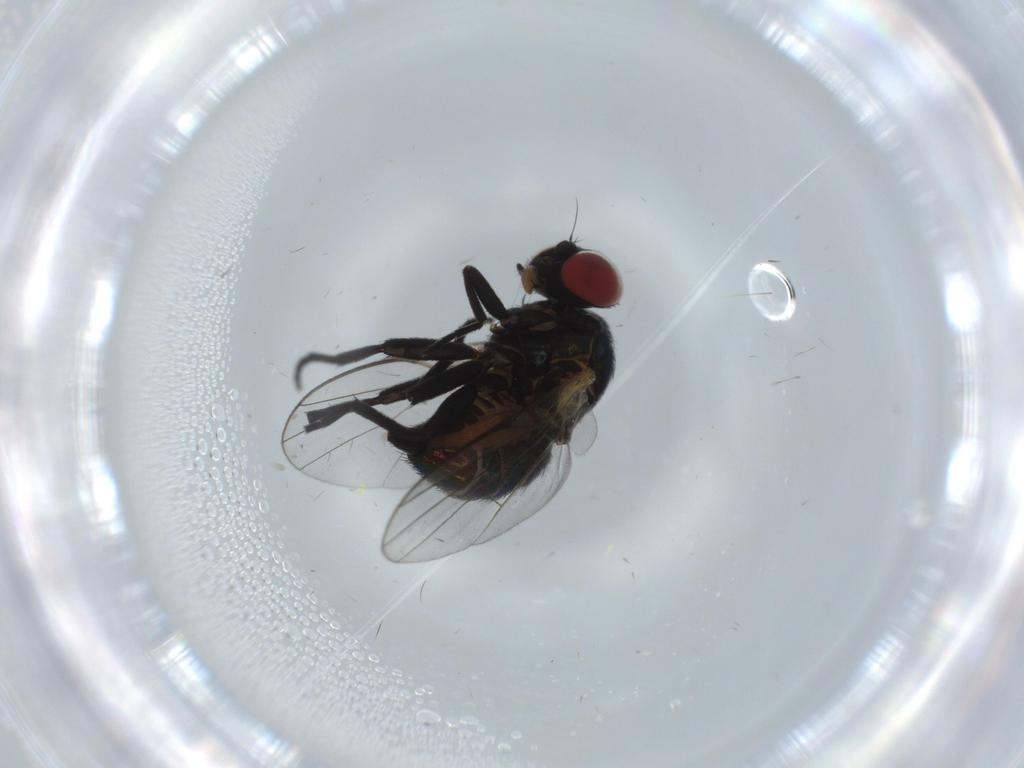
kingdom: Animalia
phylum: Arthropoda
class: Insecta
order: Diptera
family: Agromyzidae
